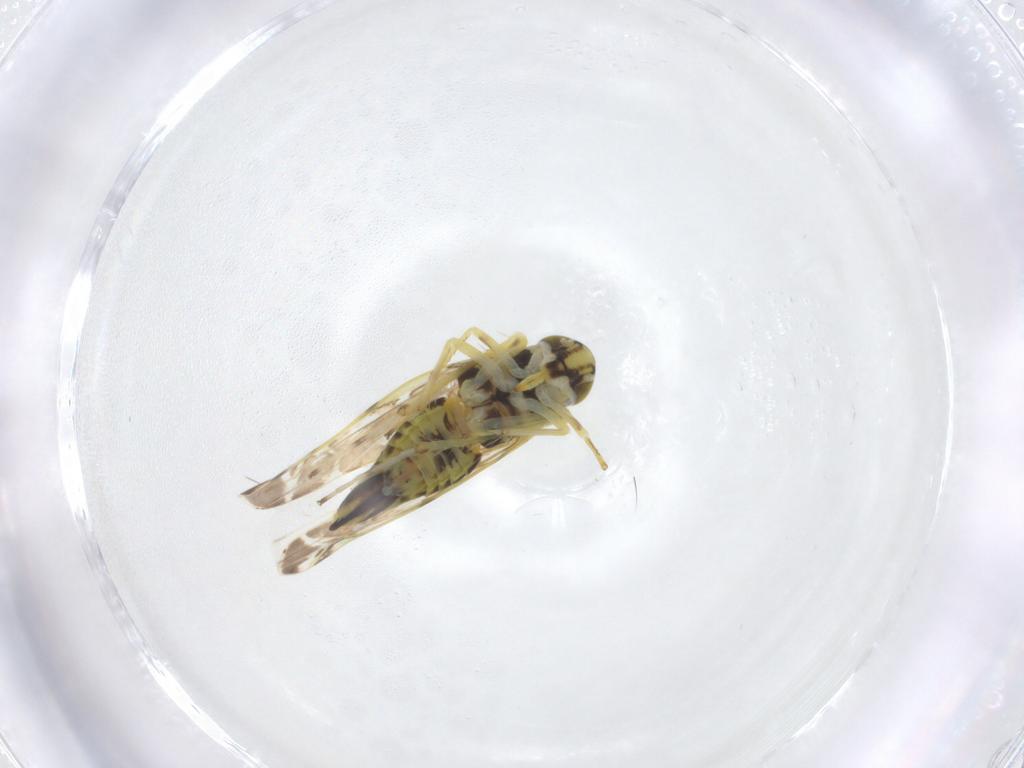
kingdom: Animalia
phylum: Arthropoda
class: Insecta
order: Hemiptera
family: Cicadellidae
